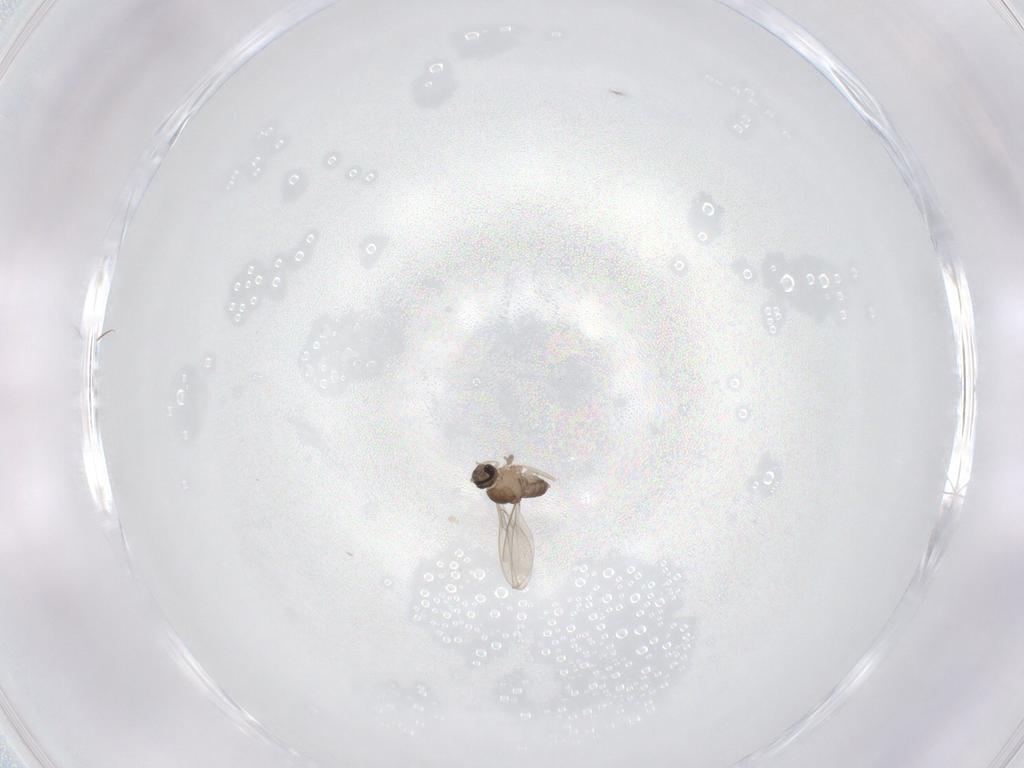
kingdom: Animalia
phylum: Arthropoda
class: Insecta
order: Diptera
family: Cecidomyiidae
